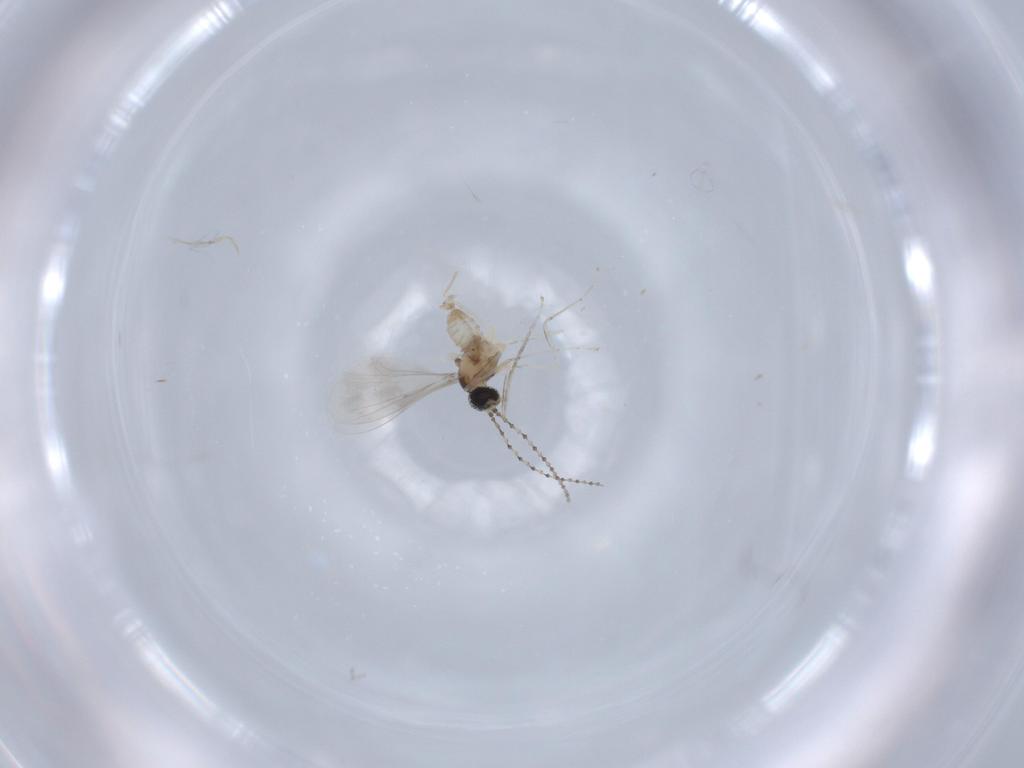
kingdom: Animalia
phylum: Arthropoda
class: Insecta
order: Diptera
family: Cecidomyiidae
